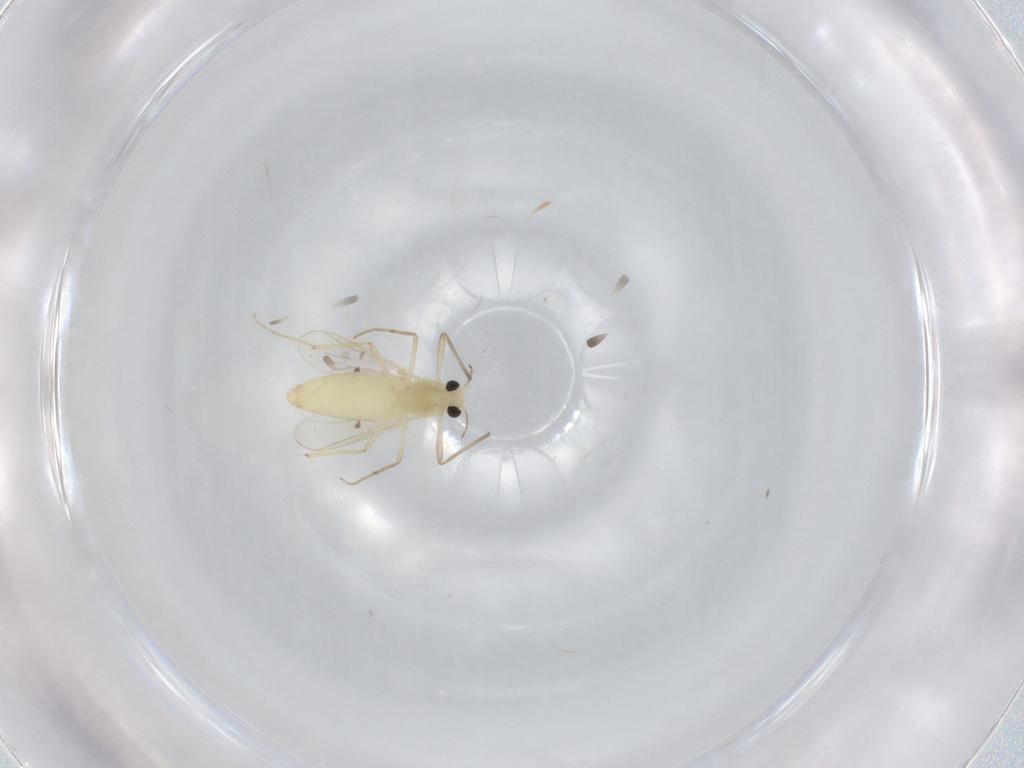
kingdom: Animalia
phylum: Arthropoda
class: Insecta
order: Diptera
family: Chironomidae
